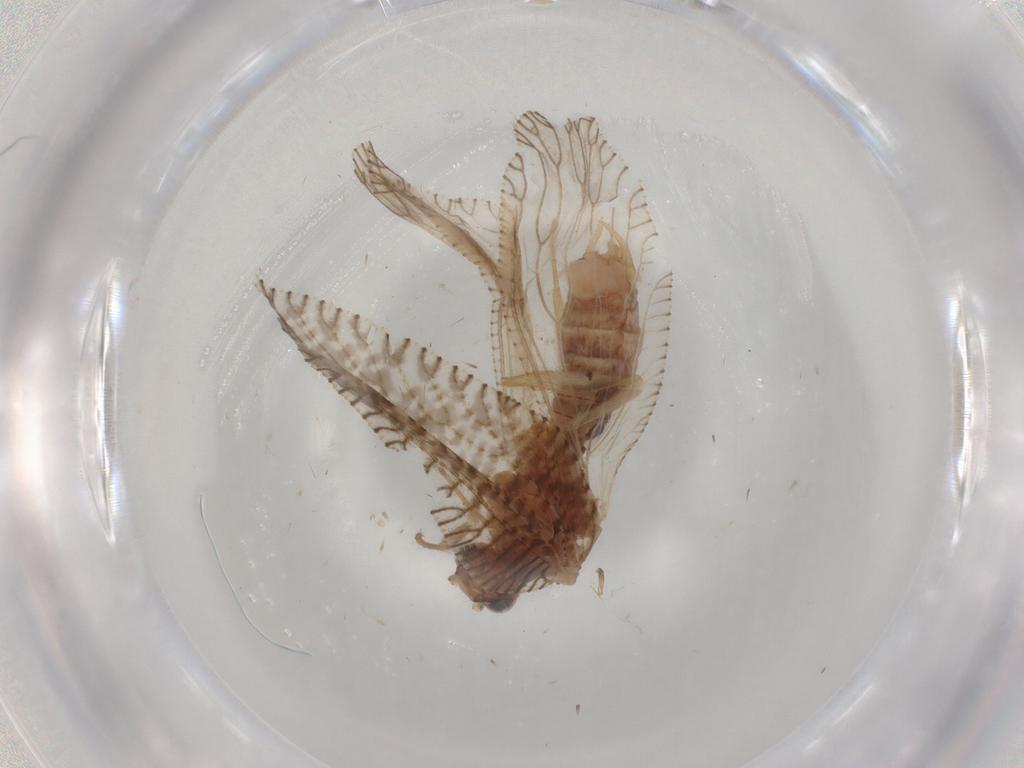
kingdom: Animalia
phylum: Arthropoda
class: Insecta
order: Neuroptera
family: Hemerobiidae
